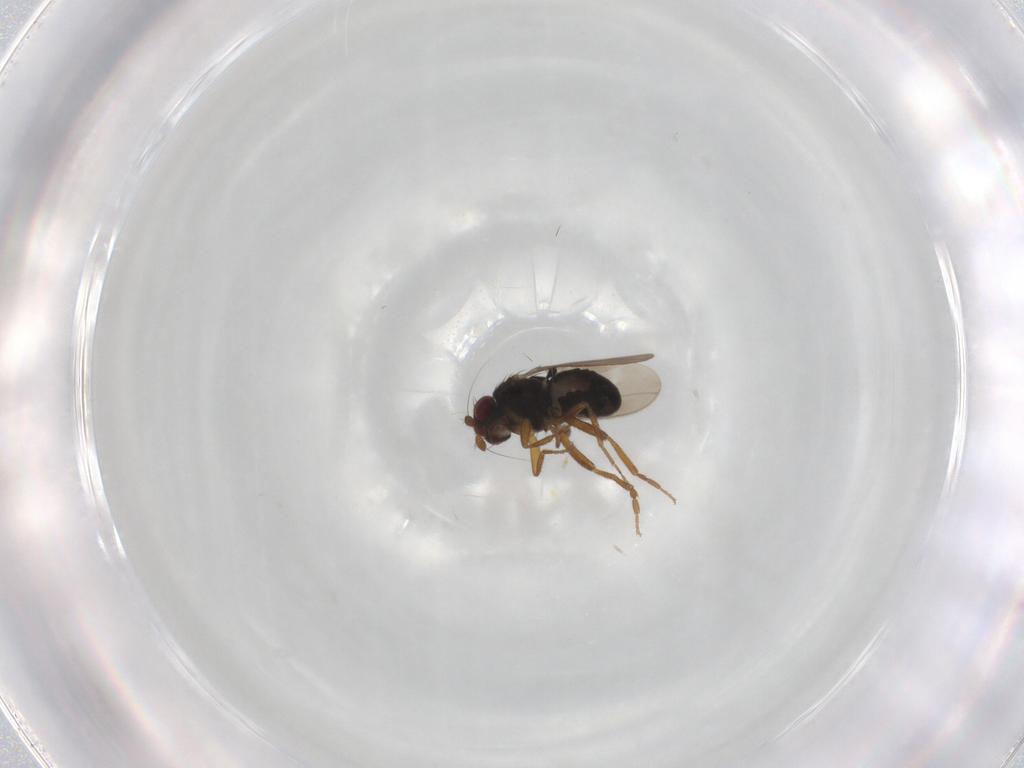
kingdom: Animalia
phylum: Arthropoda
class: Insecta
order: Diptera
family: Sphaeroceridae
